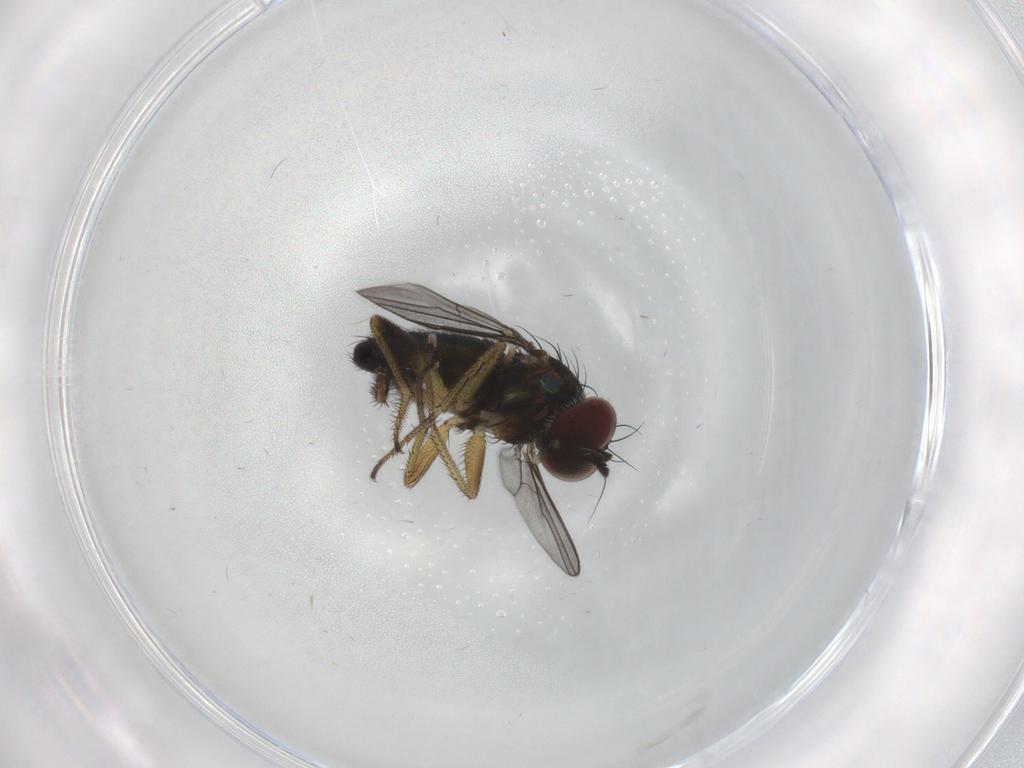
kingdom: Animalia
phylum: Arthropoda
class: Insecta
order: Diptera
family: Dolichopodidae
